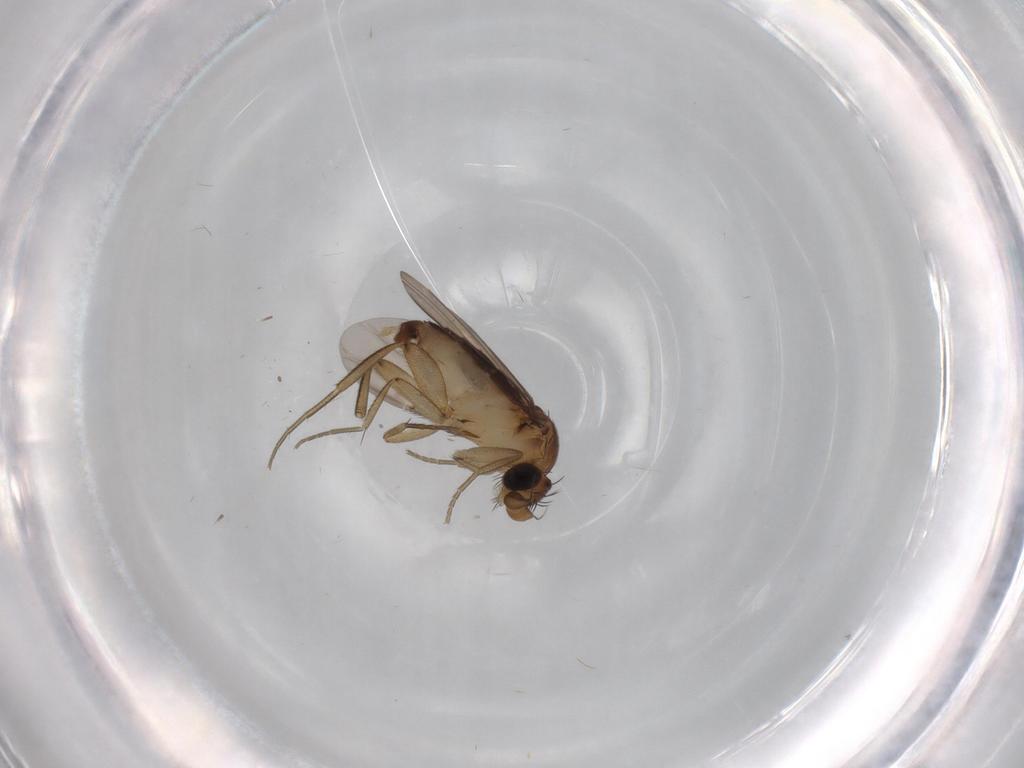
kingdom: Animalia
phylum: Arthropoda
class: Insecta
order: Diptera
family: Phoridae
